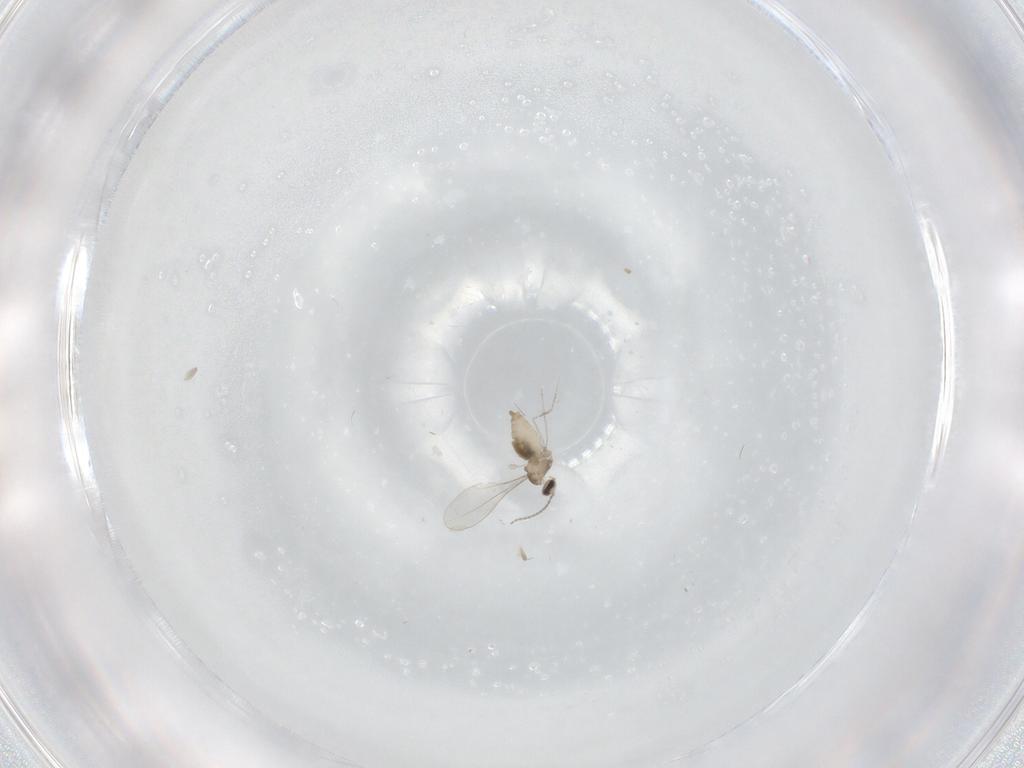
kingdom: Animalia
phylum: Arthropoda
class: Insecta
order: Diptera
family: Cecidomyiidae
